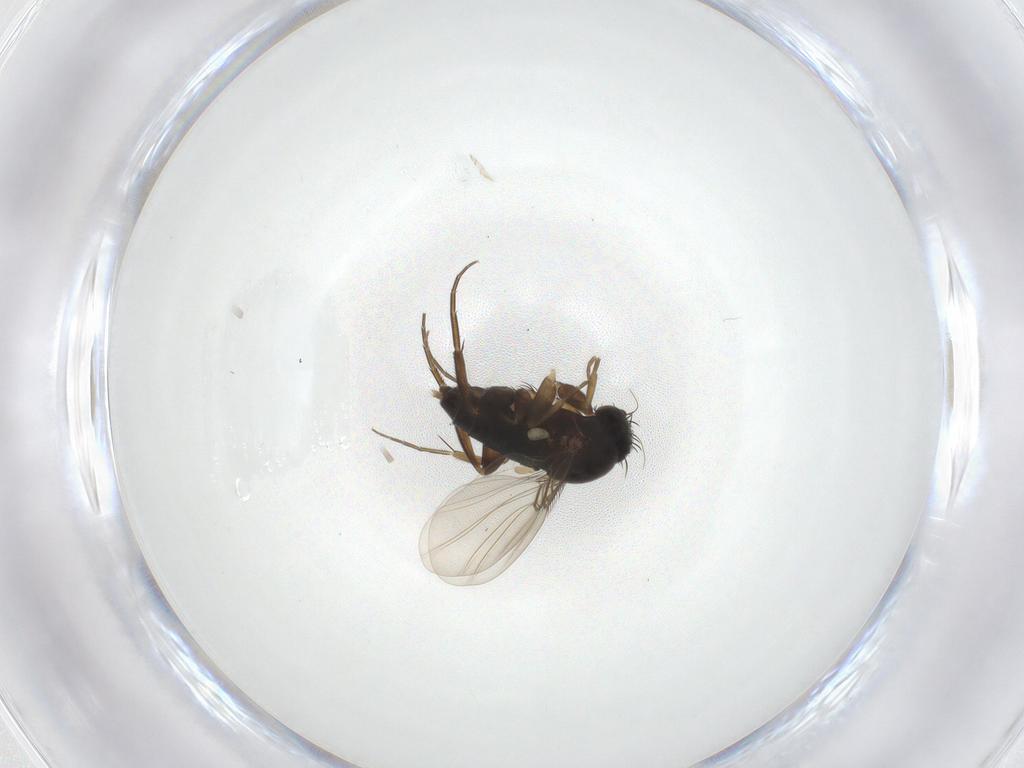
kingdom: Animalia
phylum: Arthropoda
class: Insecta
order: Diptera
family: Phoridae
